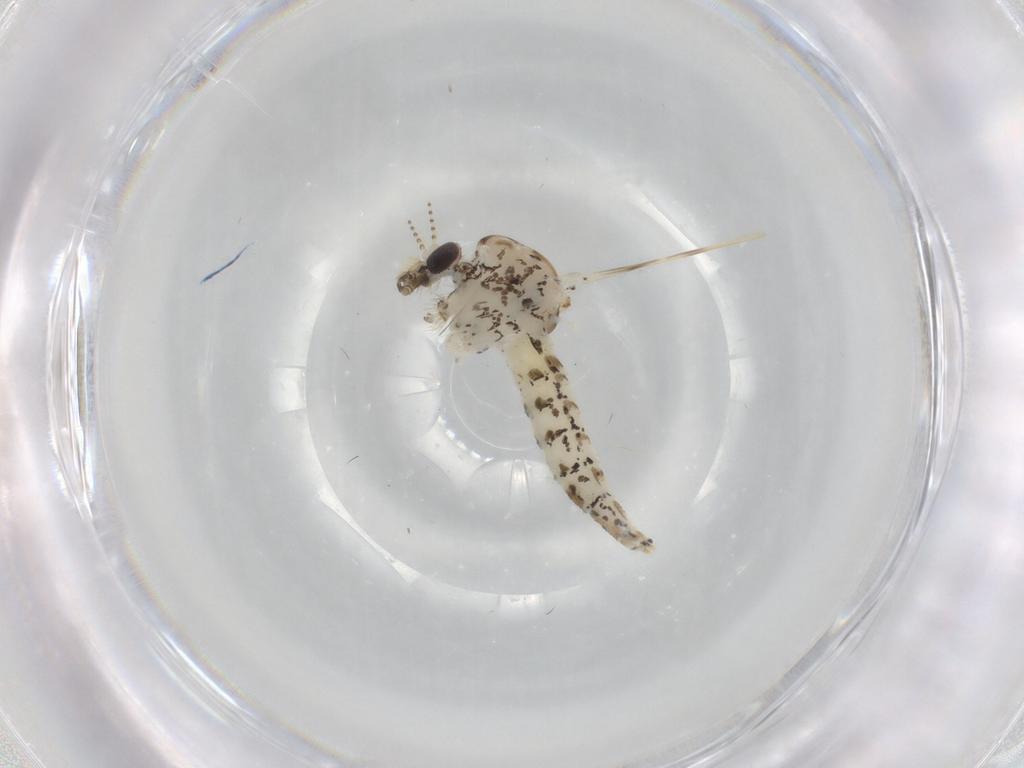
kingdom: Animalia
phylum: Arthropoda
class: Insecta
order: Diptera
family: Chaoboridae
